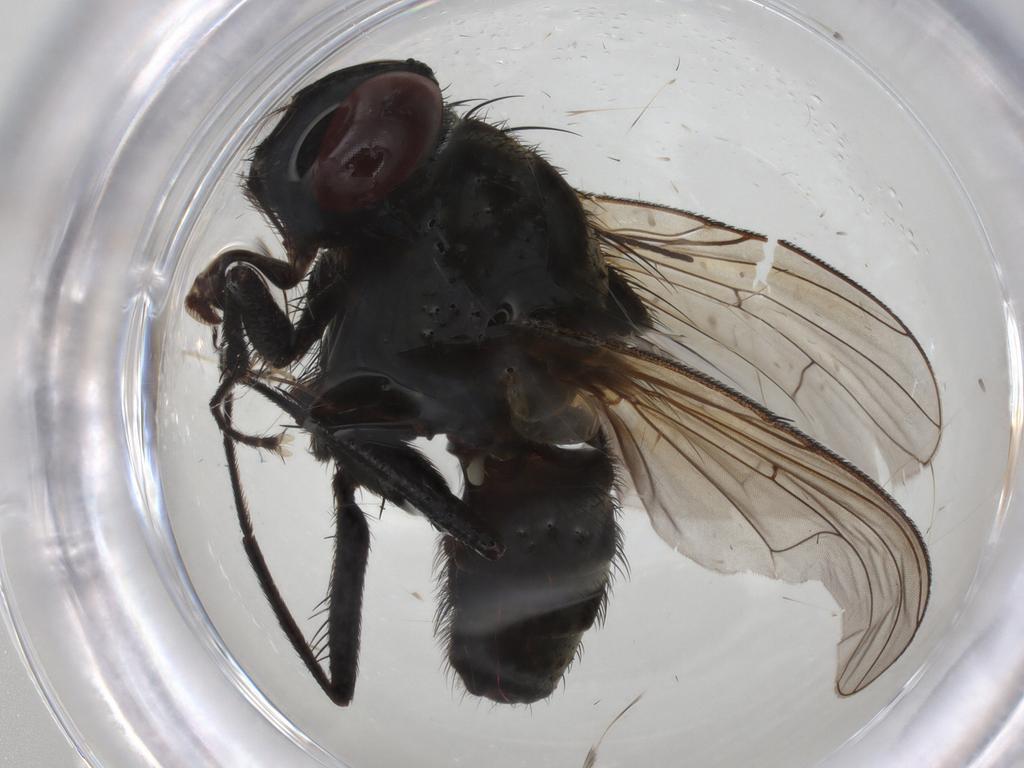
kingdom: Animalia
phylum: Arthropoda
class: Insecta
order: Diptera
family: Muscidae
